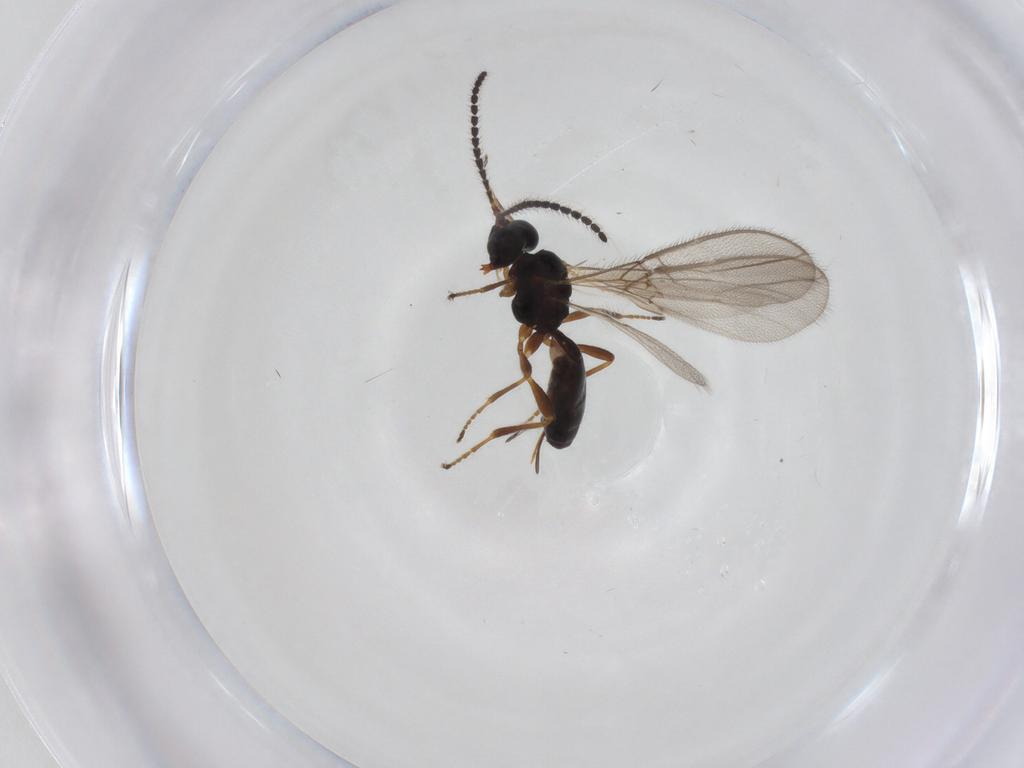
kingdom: Animalia
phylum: Arthropoda
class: Insecta
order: Hymenoptera
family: Braconidae
